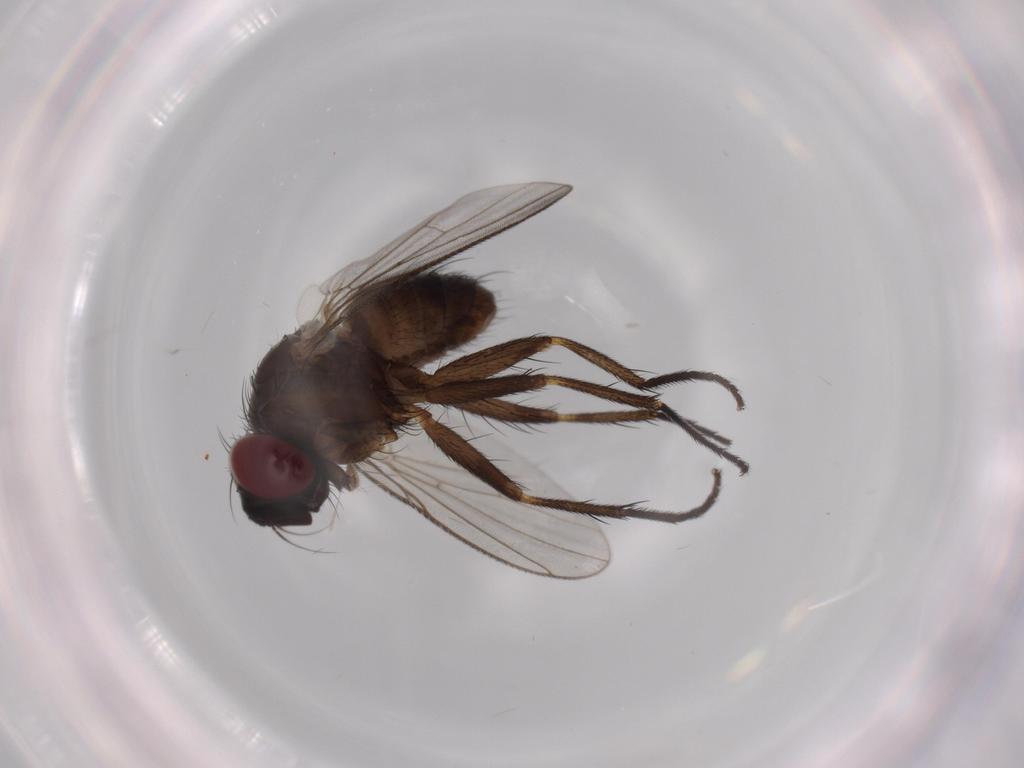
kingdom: Animalia
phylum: Arthropoda
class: Insecta
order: Diptera
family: Muscidae
